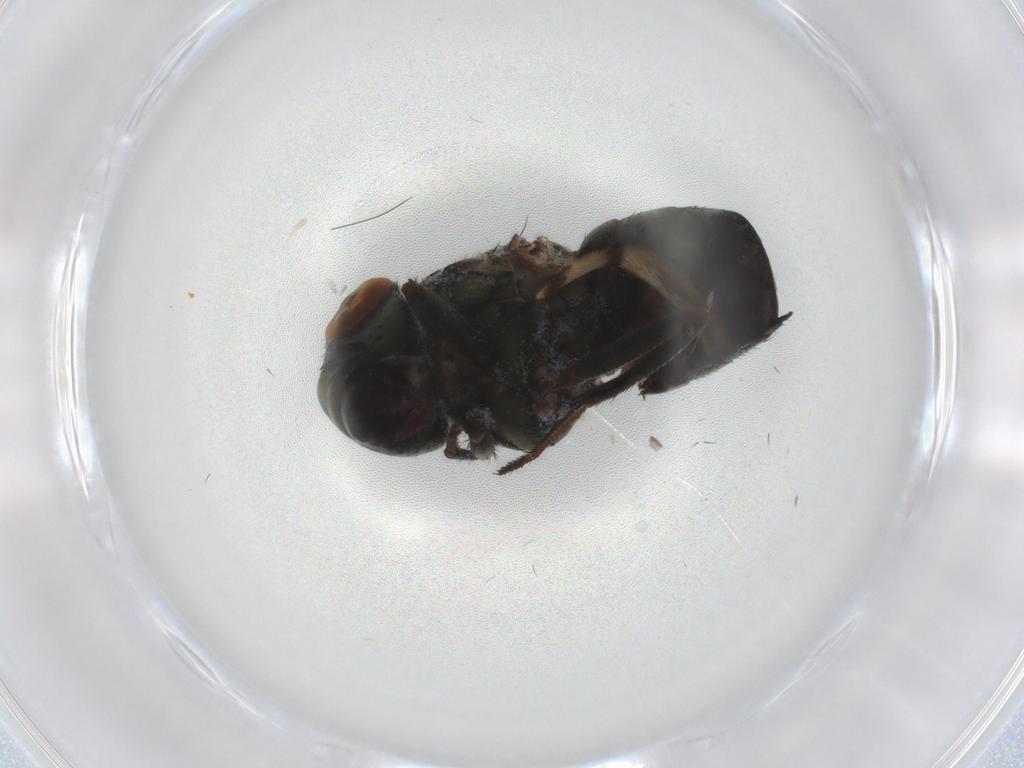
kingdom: Animalia
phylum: Arthropoda
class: Insecta
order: Diptera
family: Ephydridae
